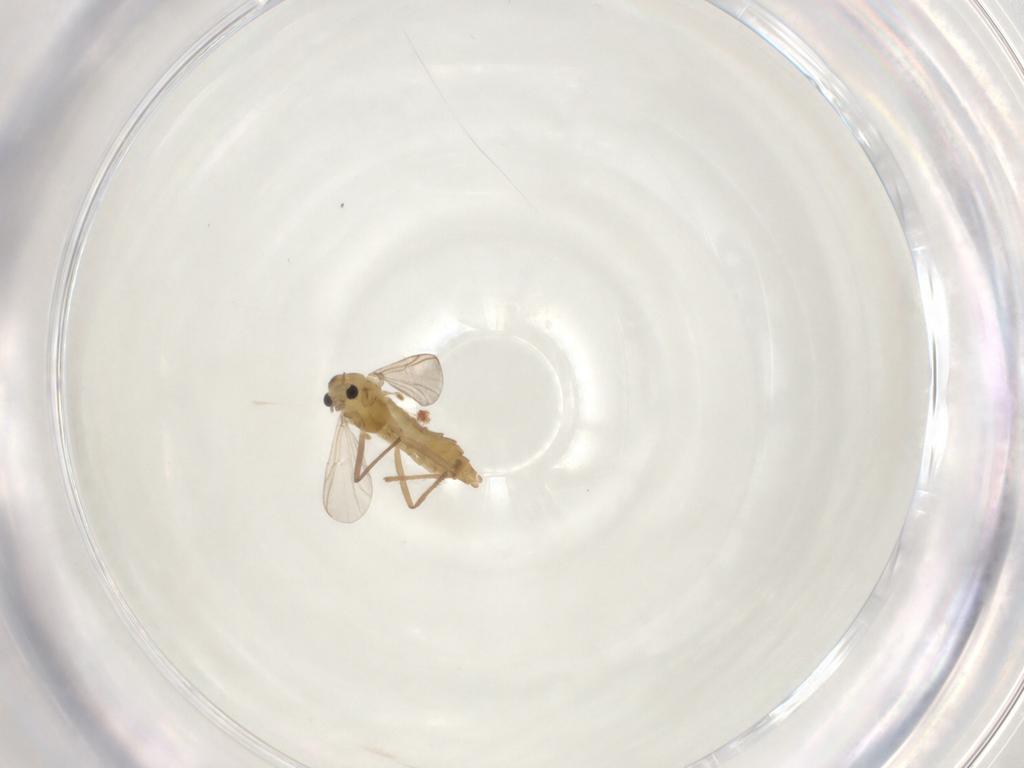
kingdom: Animalia
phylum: Arthropoda
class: Insecta
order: Diptera
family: Chironomidae
